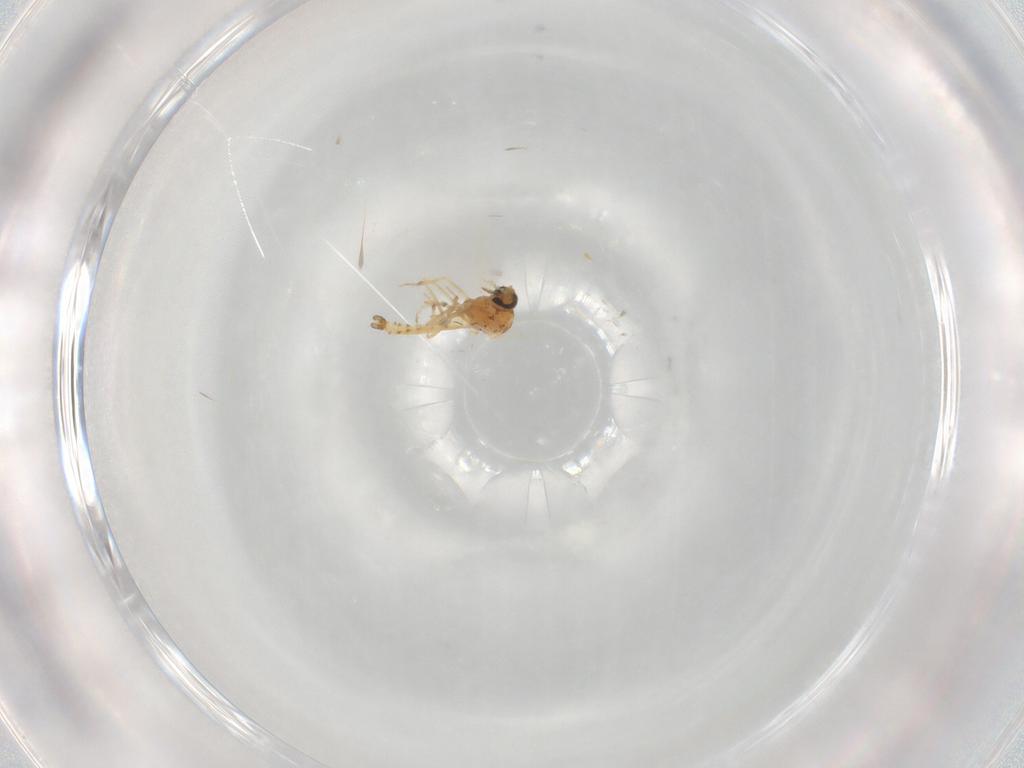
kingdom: Animalia
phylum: Arthropoda
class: Insecta
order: Diptera
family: Ceratopogonidae
